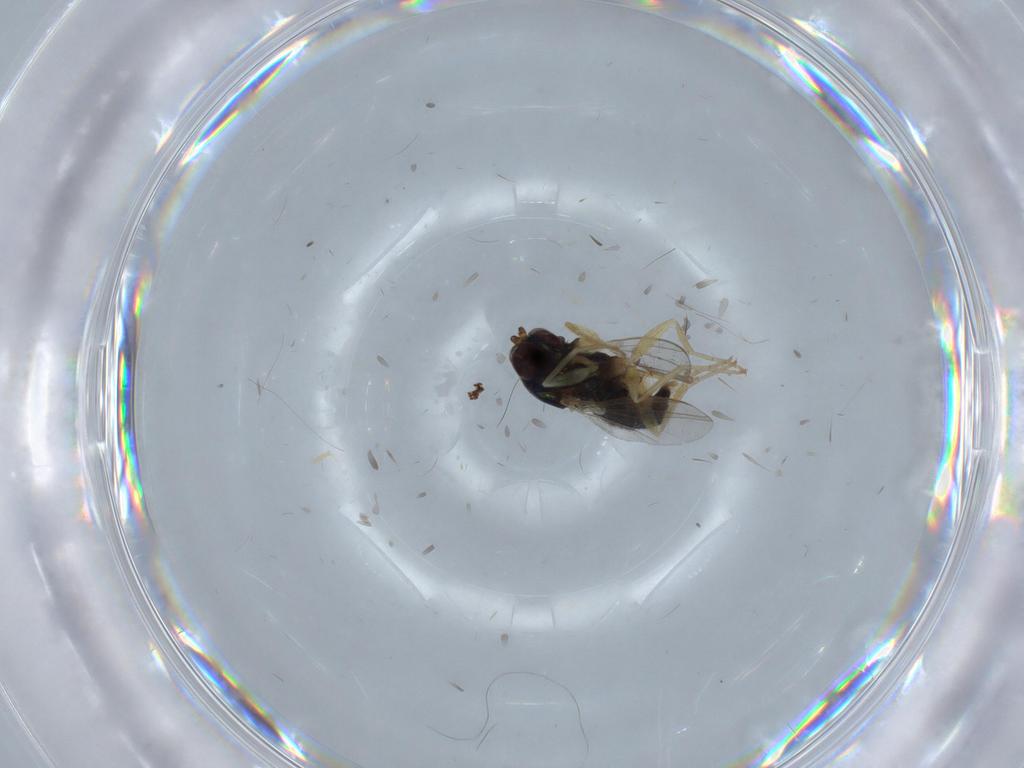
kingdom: Animalia
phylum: Arthropoda
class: Insecta
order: Diptera
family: Dolichopodidae
